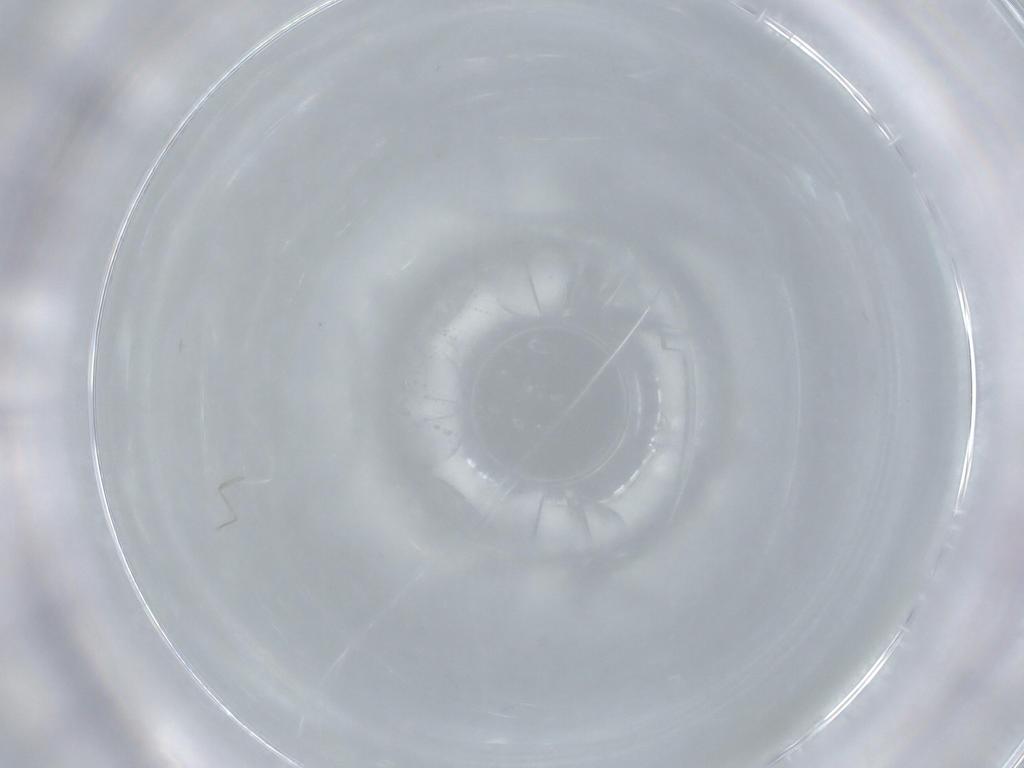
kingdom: Animalia
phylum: Arthropoda
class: Insecta
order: Diptera
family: Cecidomyiidae
